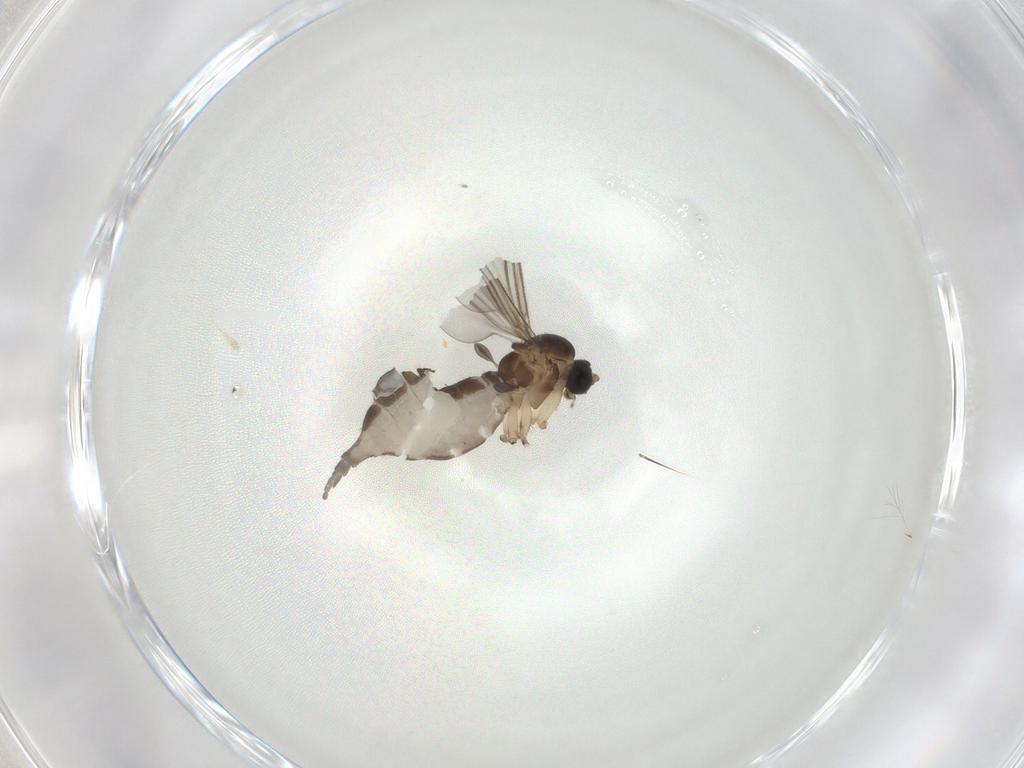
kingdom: Animalia
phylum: Arthropoda
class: Insecta
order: Diptera
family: Sciaridae
